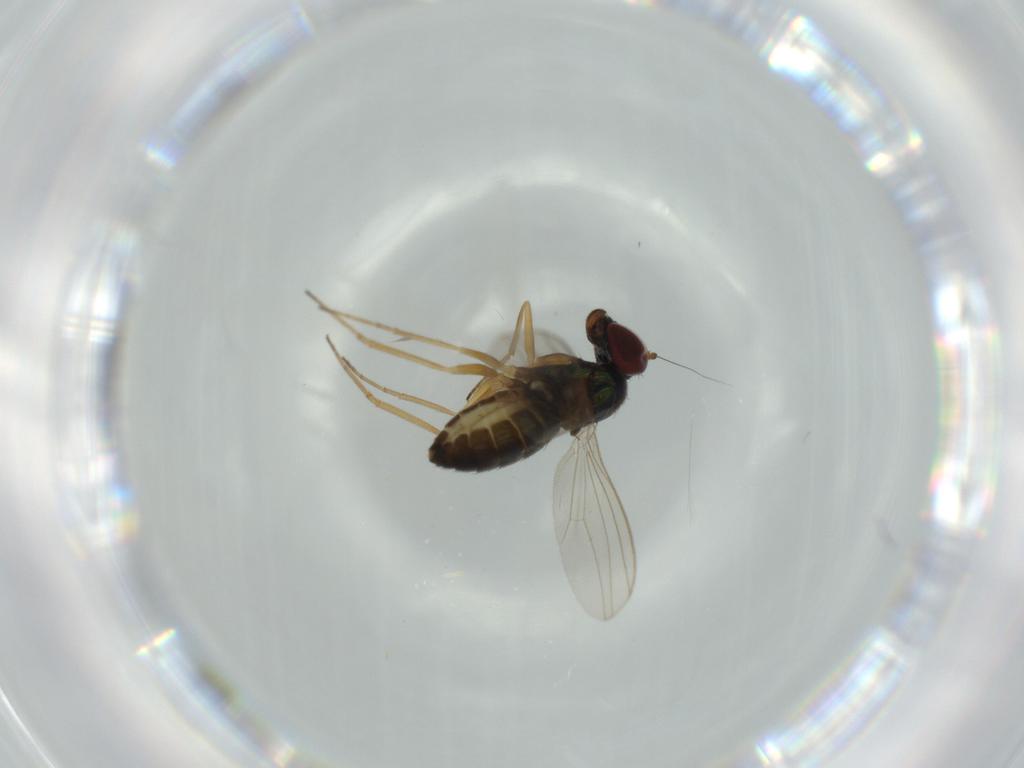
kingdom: Animalia
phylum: Arthropoda
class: Insecta
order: Diptera
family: Dolichopodidae
